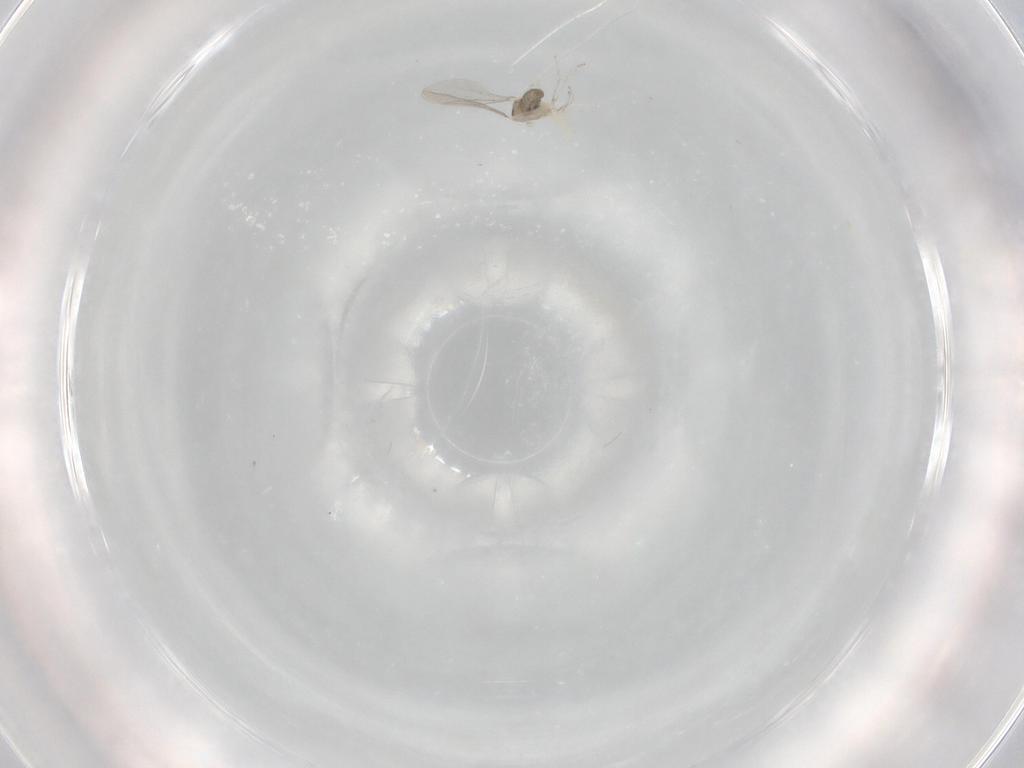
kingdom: Animalia
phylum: Arthropoda
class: Insecta
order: Diptera
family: Cecidomyiidae
